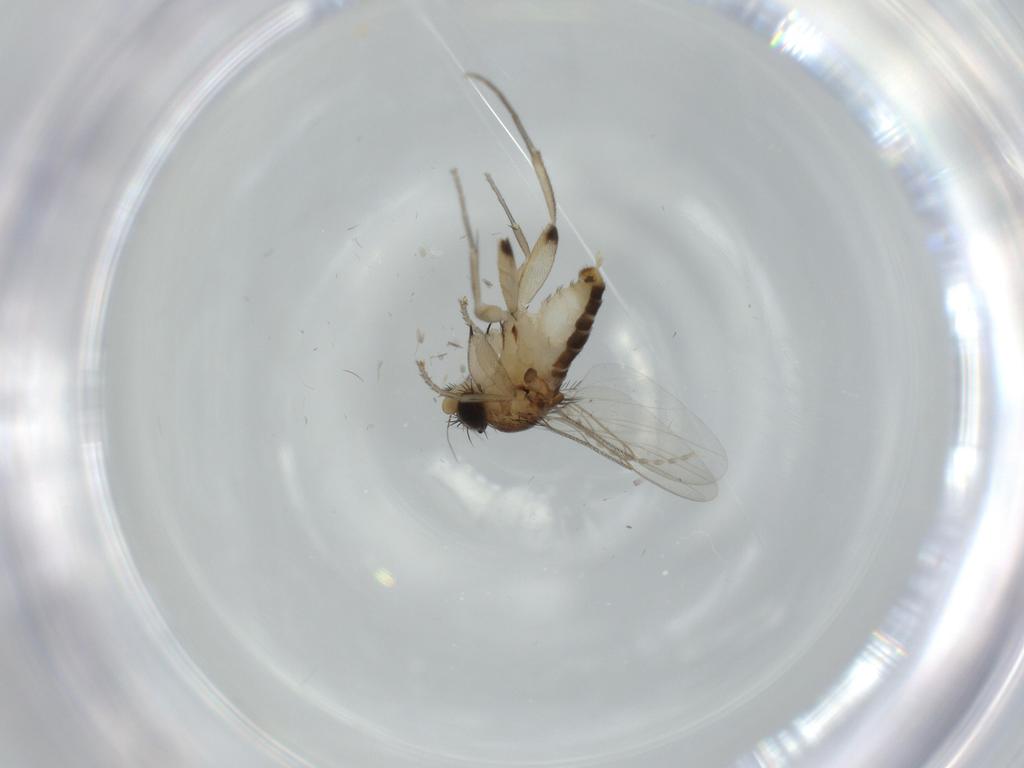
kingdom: Animalia
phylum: Arthropoda
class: Insecta
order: Diptera
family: Phoridae
